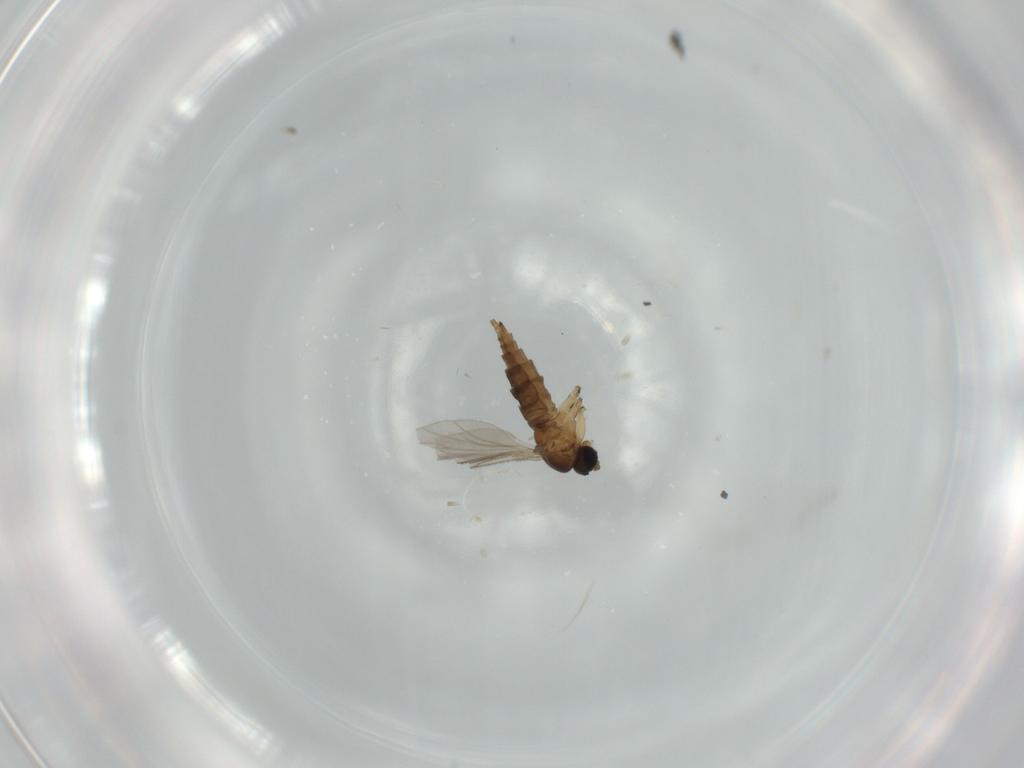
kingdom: Animalia
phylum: Arthropoda
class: Insecta
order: Diptera
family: Sciaridae
